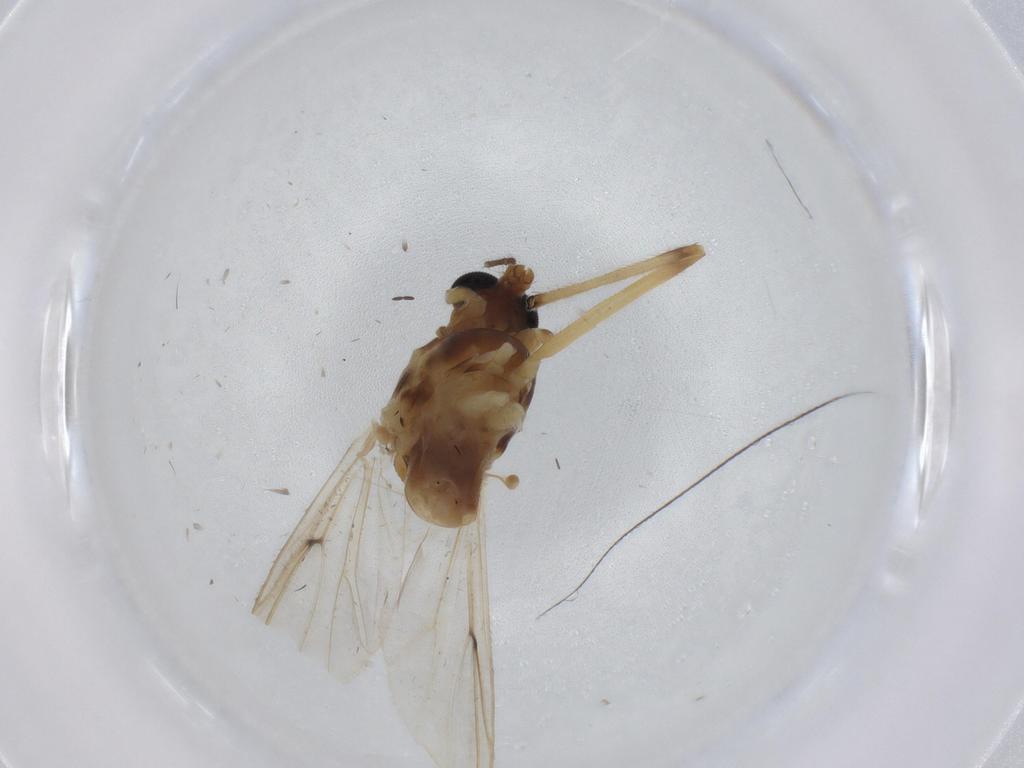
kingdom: Animalia
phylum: Arthropoda
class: Insecta
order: Diptera
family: Chironomidae
